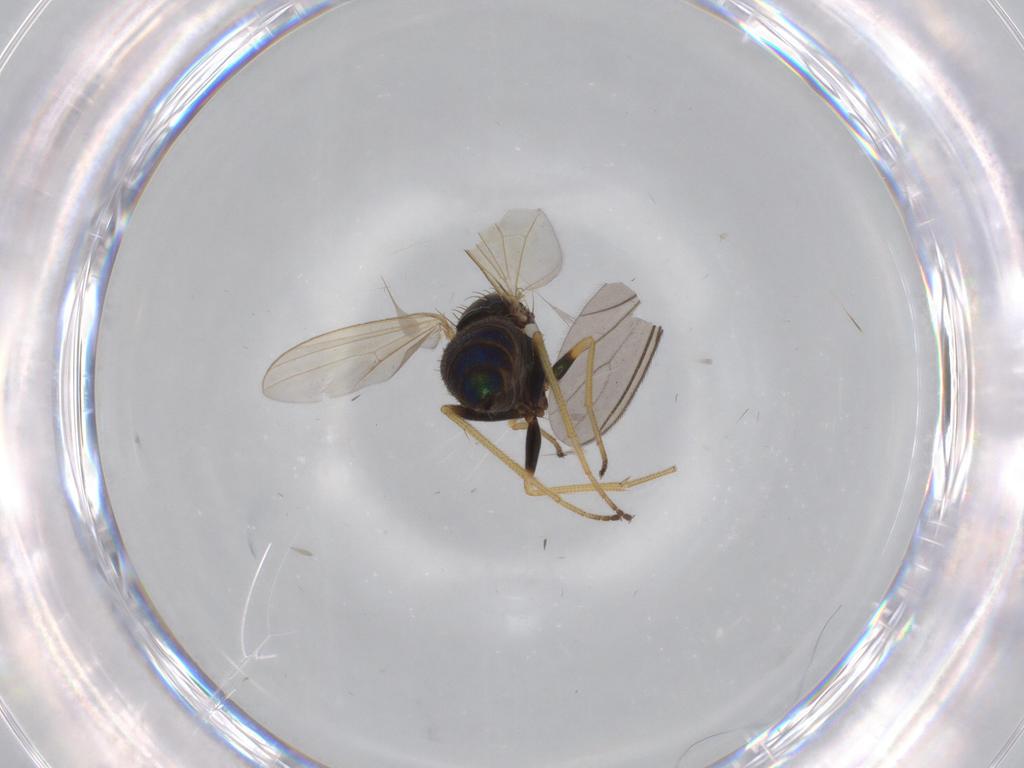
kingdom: Animalia
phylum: Arthropoda
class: Insecta
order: Diptera
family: Dolichopodidae
